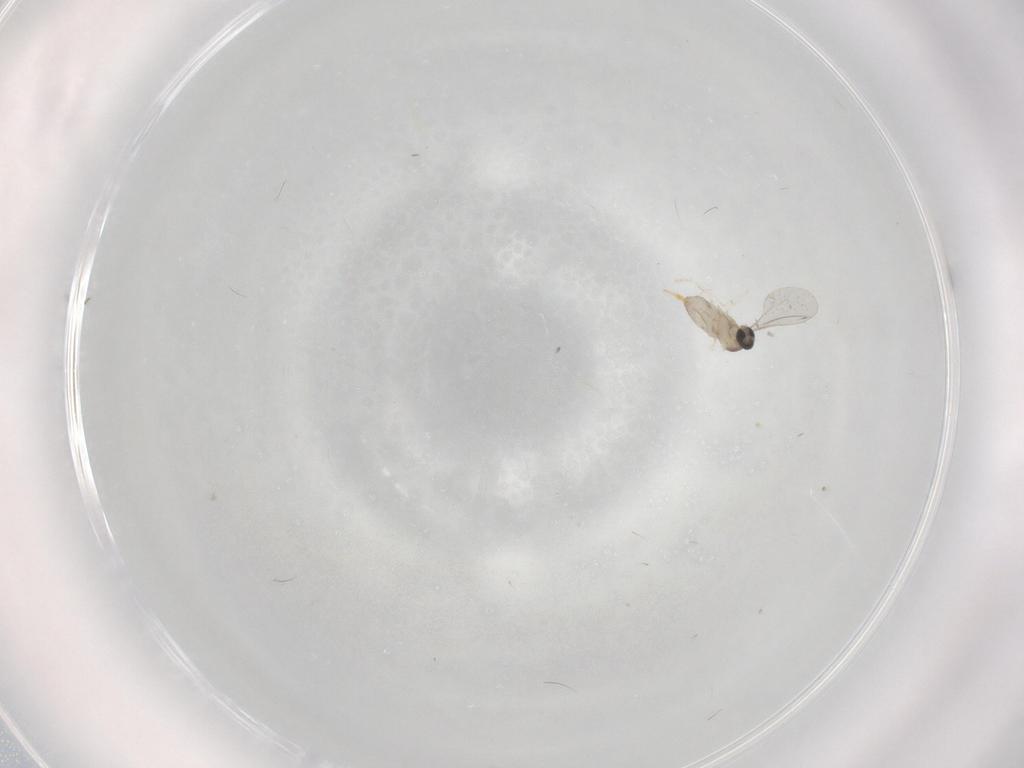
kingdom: Animalia
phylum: Arthropoda
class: Insecta
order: Diptera
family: Cecidomyiidae
